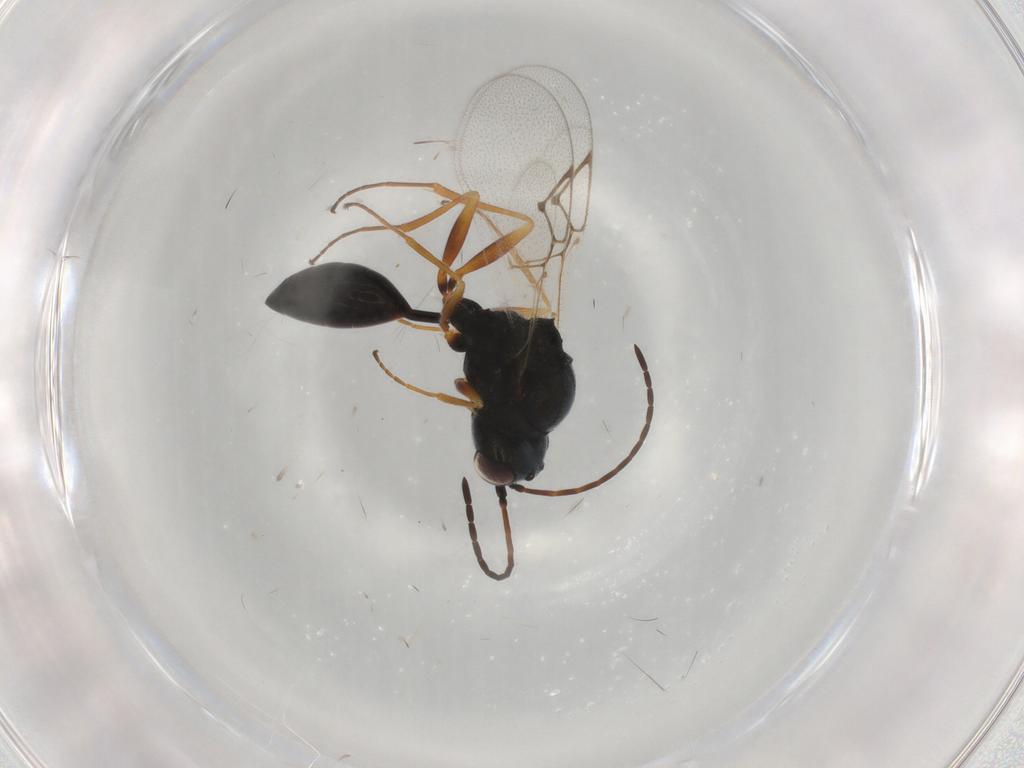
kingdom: Animalia
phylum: Arthropoda
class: Insecta
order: Hymenoptera
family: Figitidae
